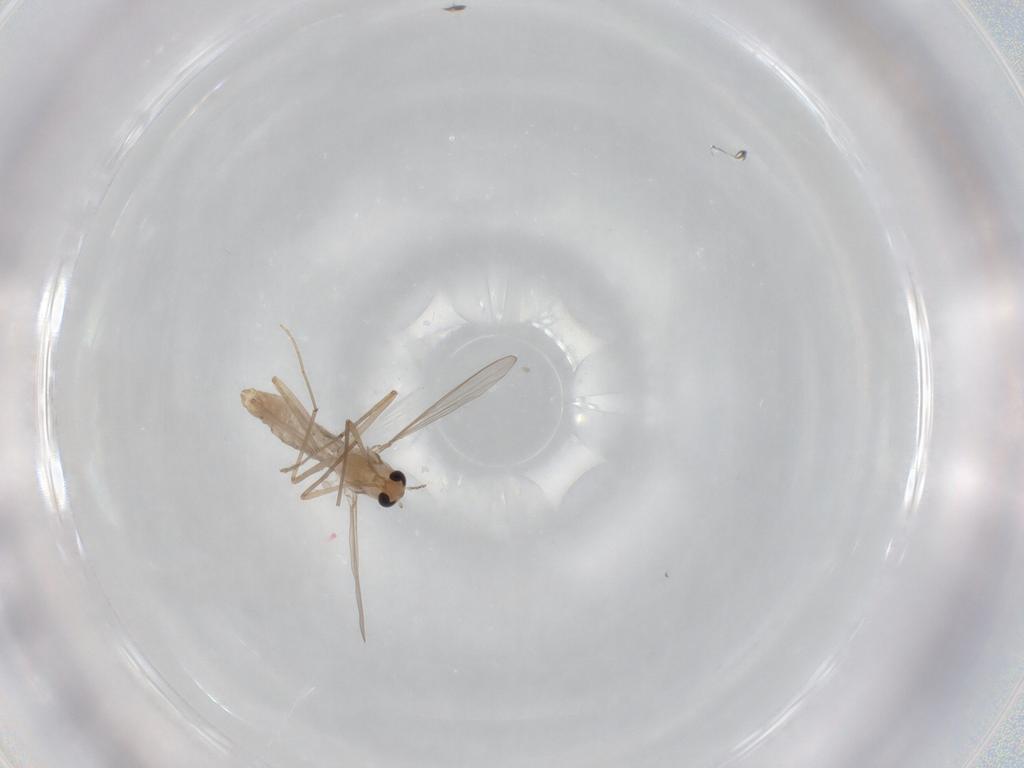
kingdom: Animalia
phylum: Arthropoda
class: Insecta
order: Diptera
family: Chironomidae
